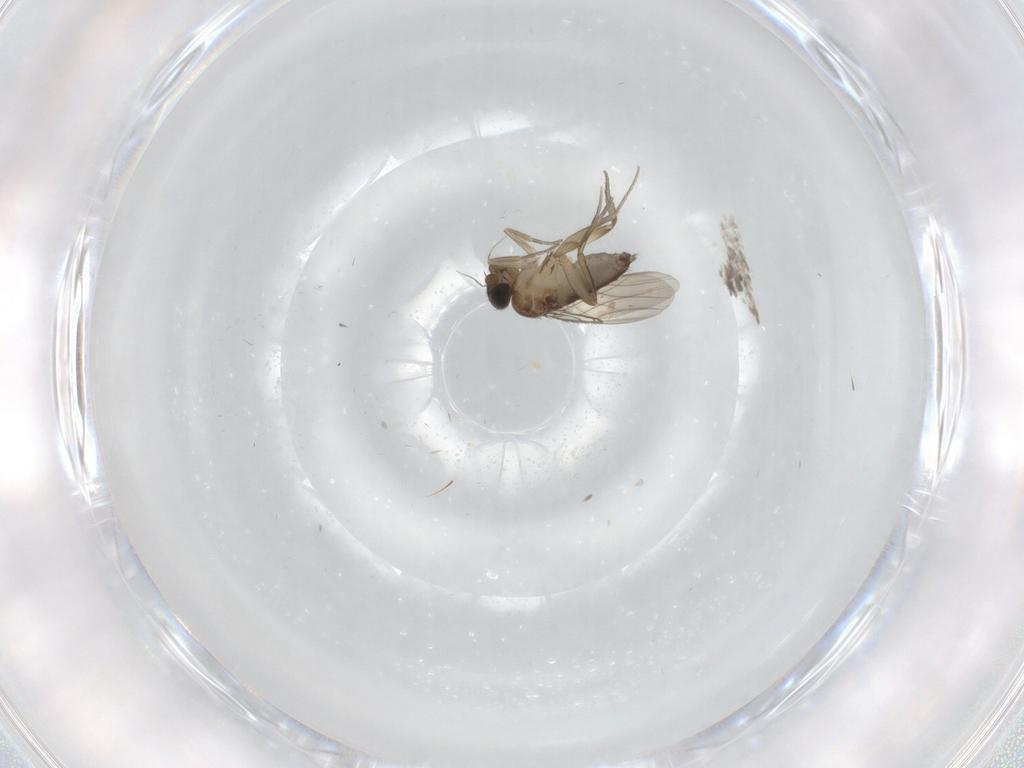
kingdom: Animalia
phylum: Arthropoda
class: Insecta
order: Diptera
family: Phoridae
